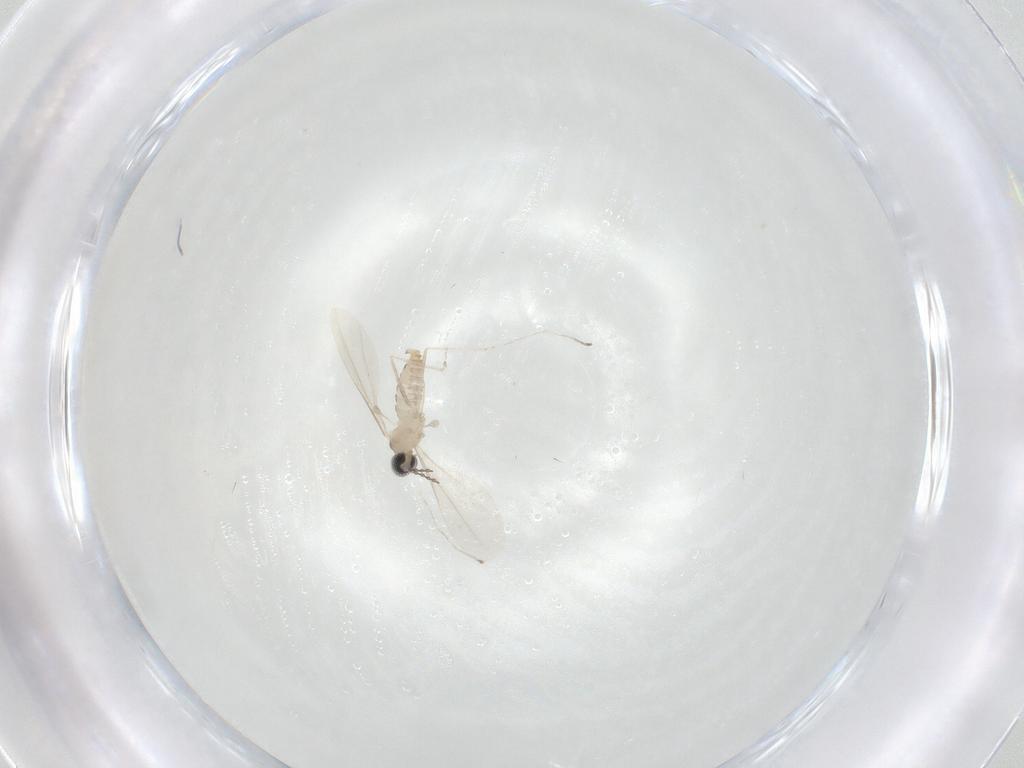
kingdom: Animalia
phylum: Arthropoda
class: Insecta
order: Diptera
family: Cecidomyiidae
